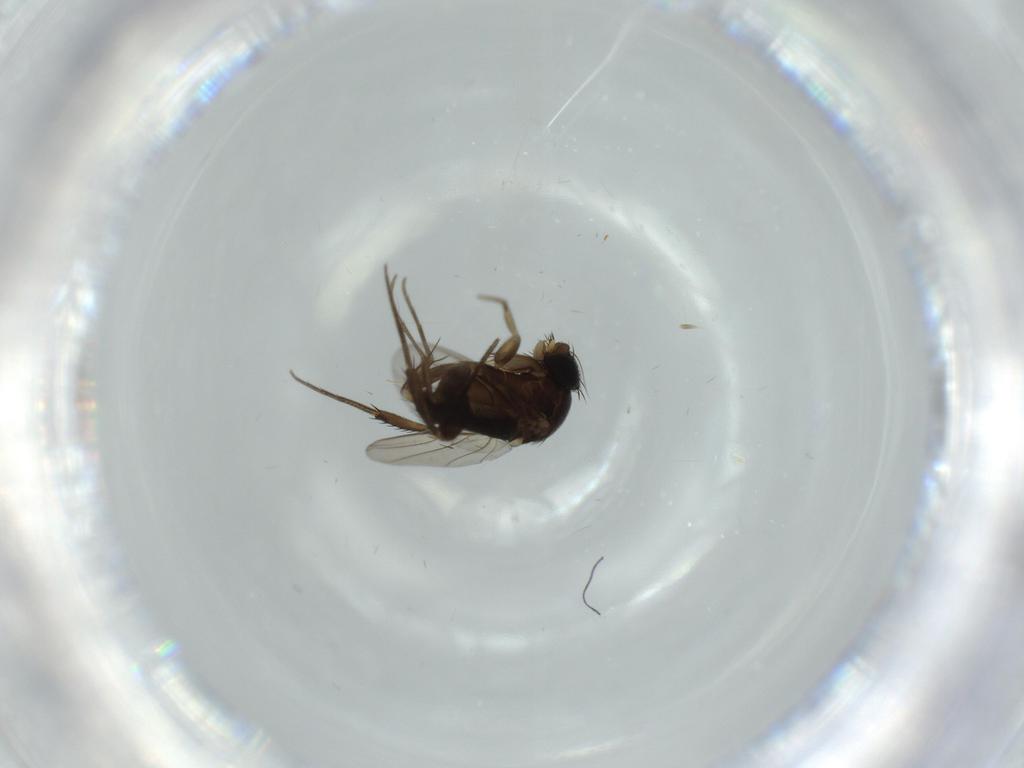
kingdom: Animalia
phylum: Arthropoda
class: Insecta
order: Diptera
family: Phoridae
